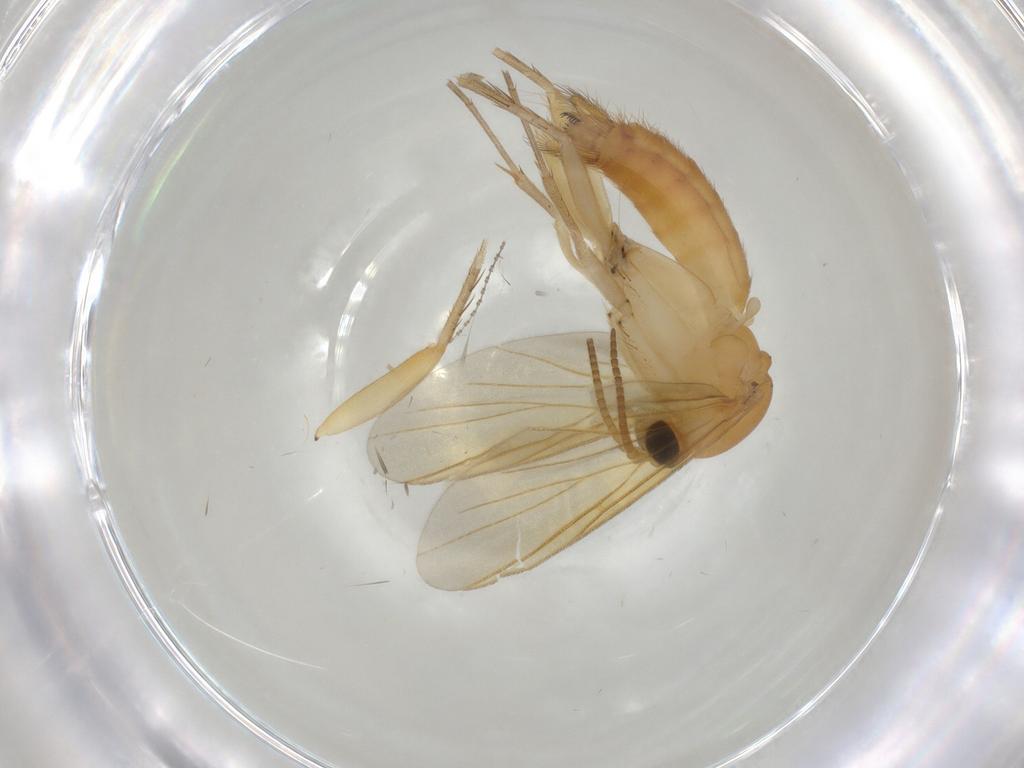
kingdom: Animalia
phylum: Arthropoda
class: Insecta
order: Diptera
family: Mycetophilidae
